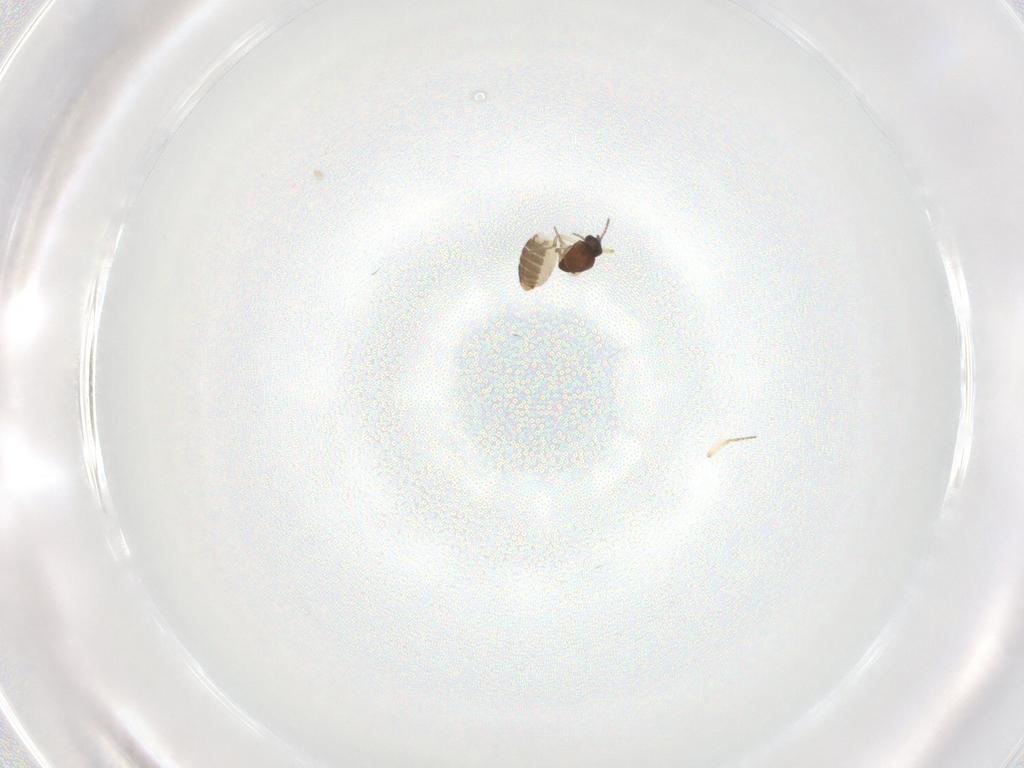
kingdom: Animalia
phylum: Arthropoda
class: Insecta
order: Diptera
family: Ceratopogonidae
